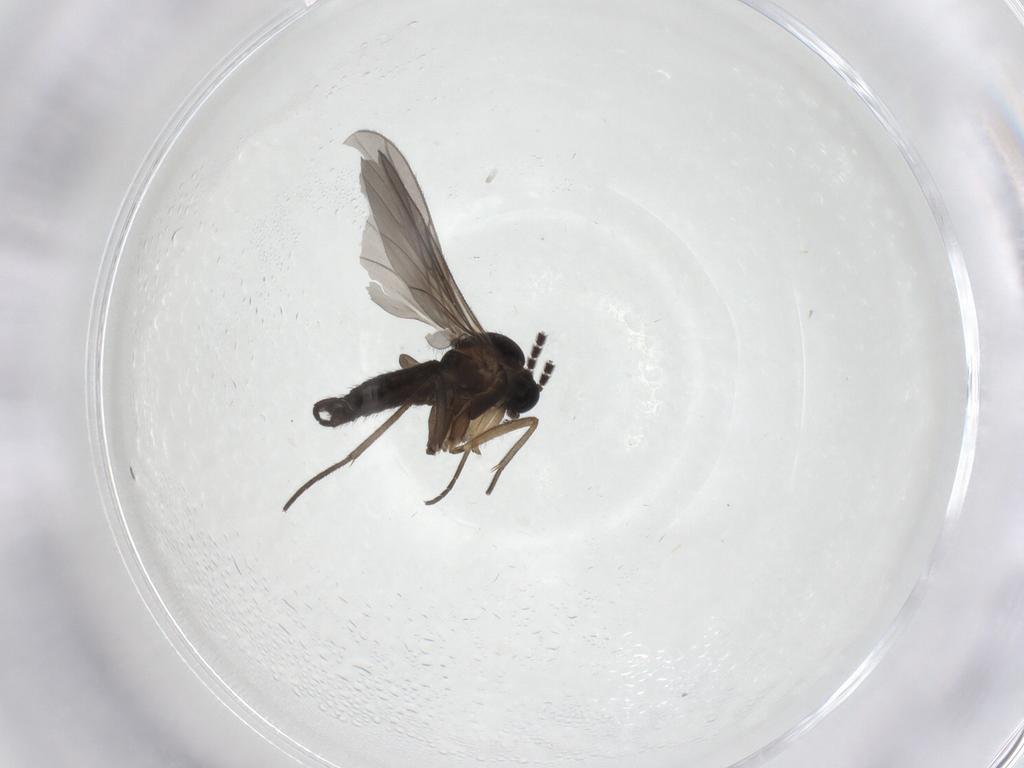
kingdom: Animalia
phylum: Arthropoda
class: Insecta
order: Diptera
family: Sciaridae
